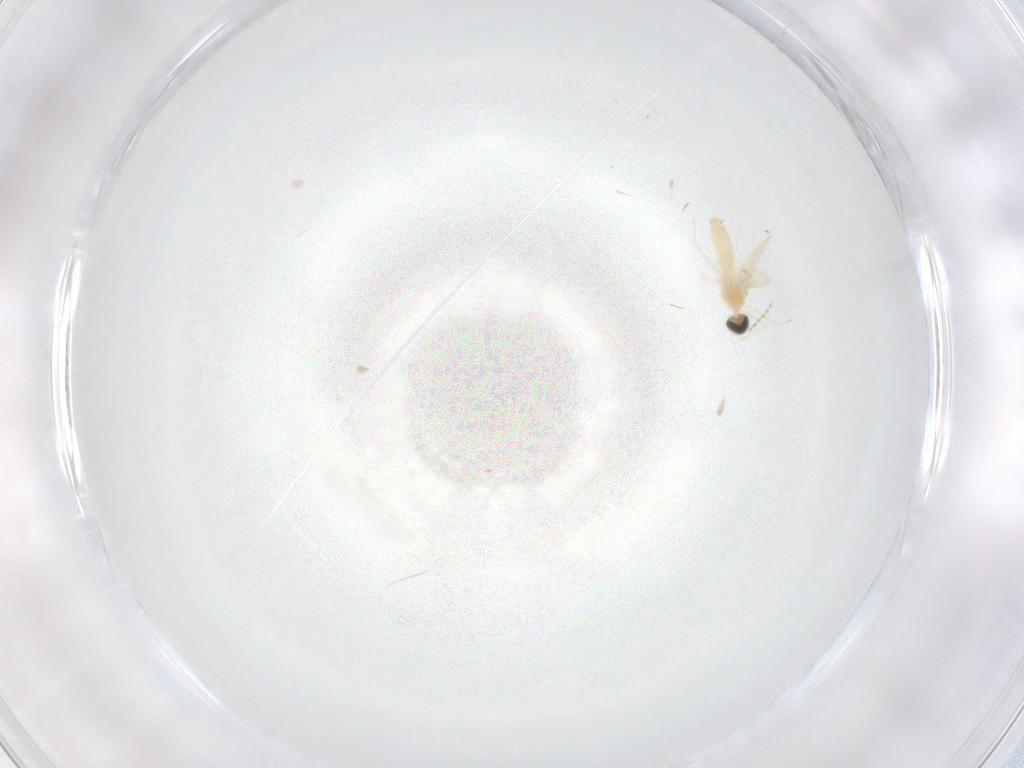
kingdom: Animalia
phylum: Arthropoda
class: Insecta
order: Diptera
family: Cecidomyiidae
